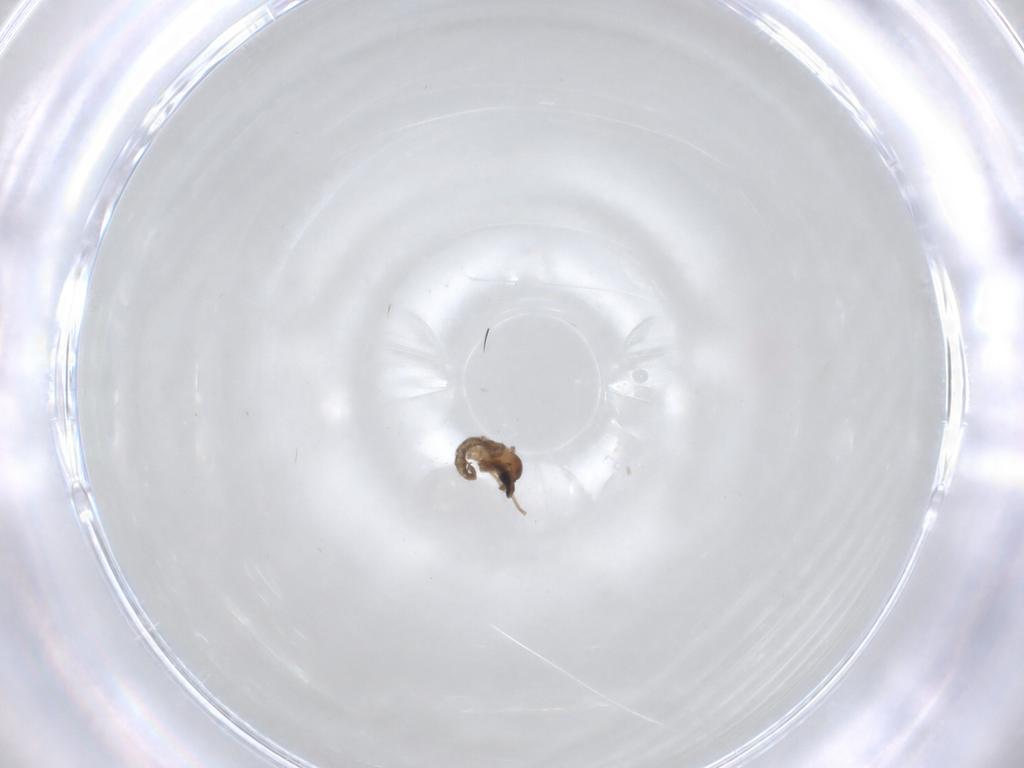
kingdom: Animalia
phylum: Arthropoda
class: Insecta
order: Diptera
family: Cecidomyiidae
